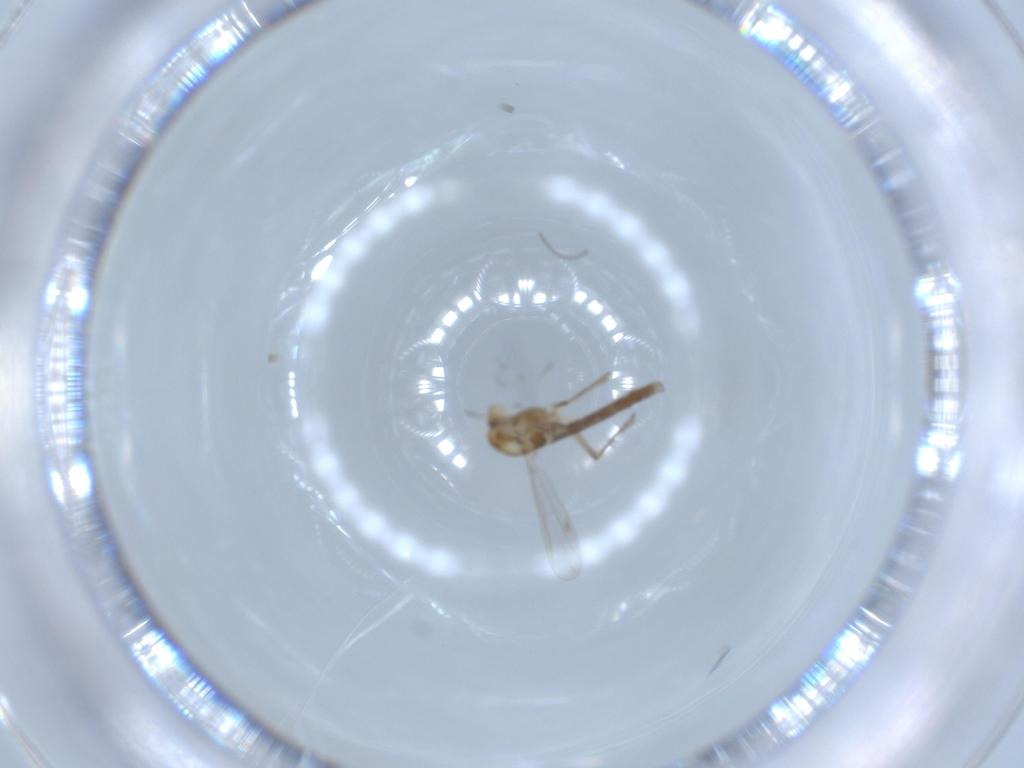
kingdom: Animalia
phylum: Arthropoda
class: Insecta
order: Diptera
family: Chironomidae
